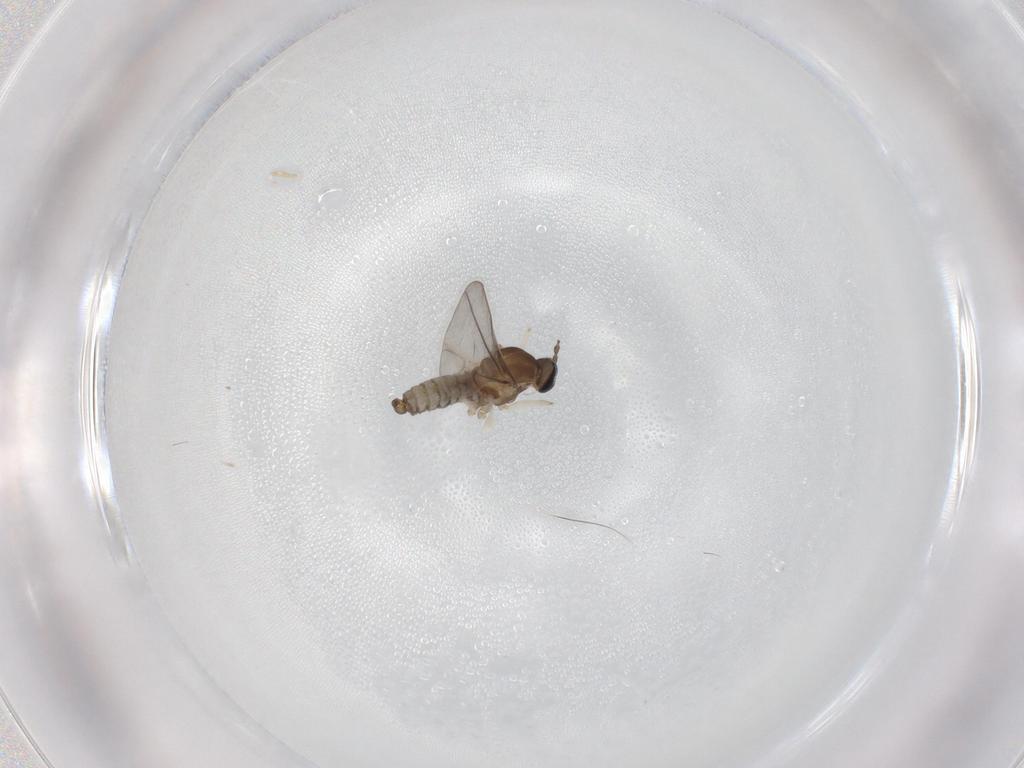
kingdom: Animalia
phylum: Arthropoda
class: Insecta
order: Diptera
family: Cecidomyiidae
